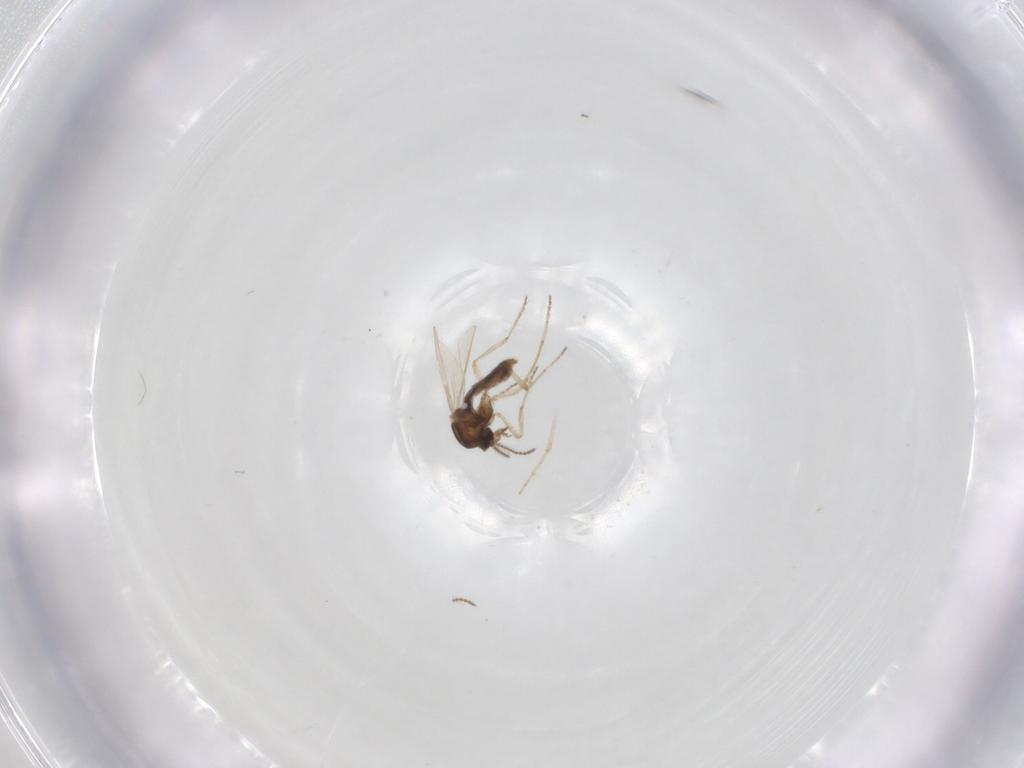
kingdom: Animalia
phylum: Arthropoda
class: Insecta
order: Diptera
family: Ceratopogonidae
